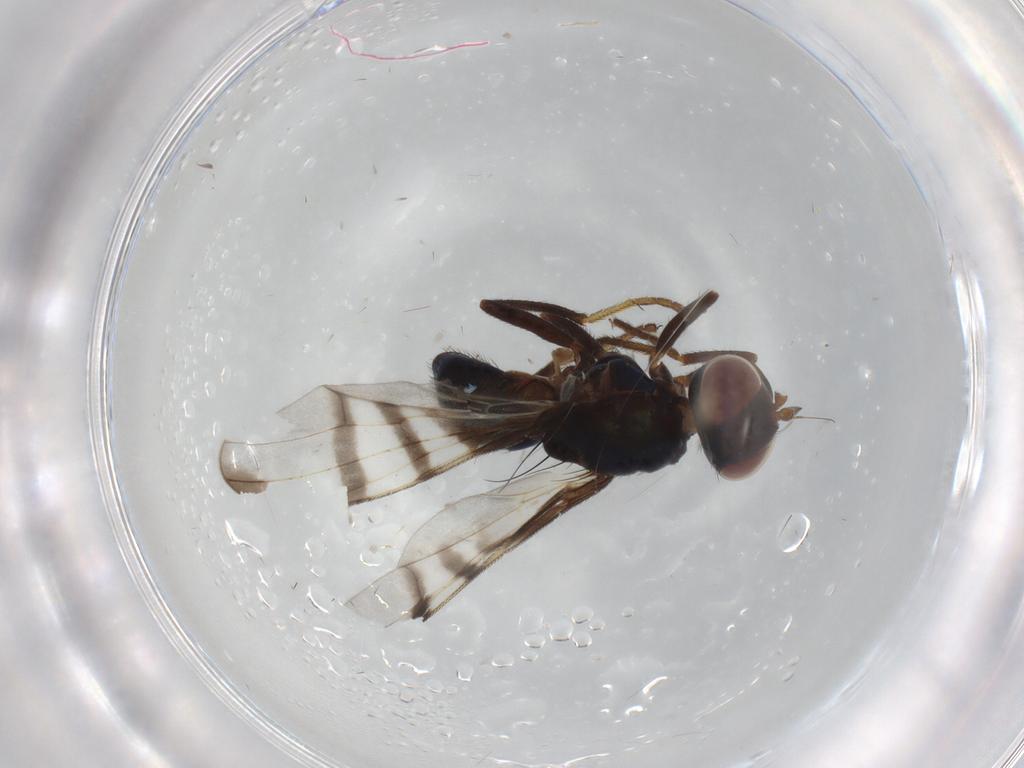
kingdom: Animalia
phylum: Arthropoda
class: Insecta
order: Diptera
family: Platystomatidae
